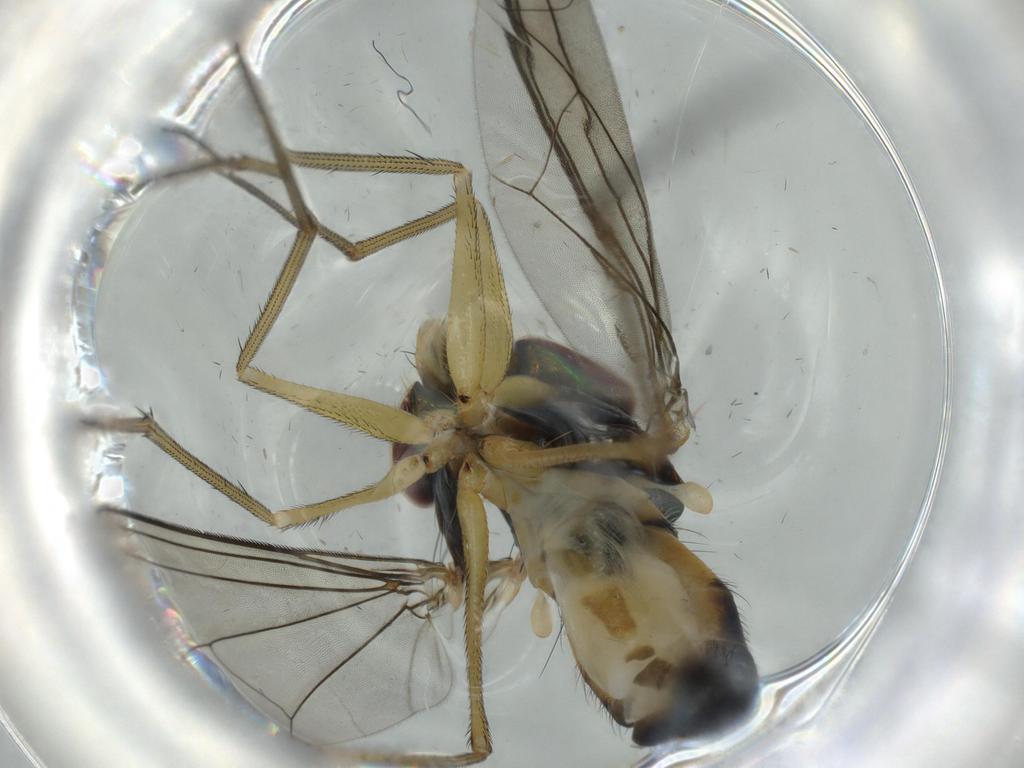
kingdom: Animalia
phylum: Arthropoda
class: Insecta
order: Diptera
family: Dolichopodidae
